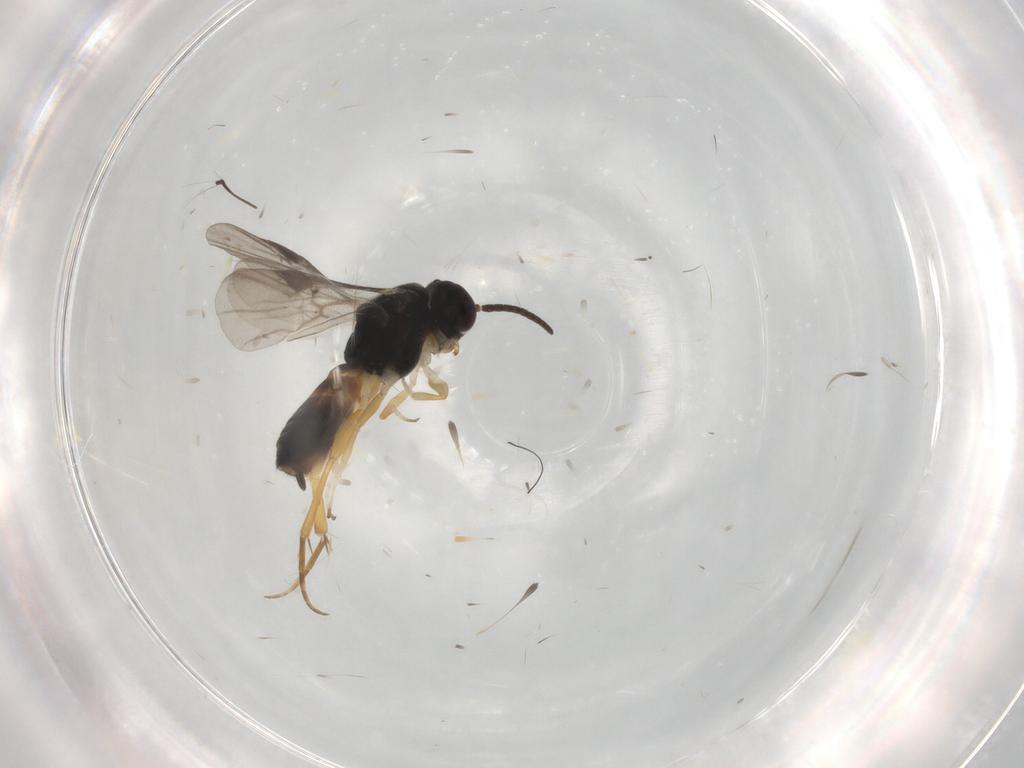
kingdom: Animalia
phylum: Arthropoda
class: Insecta
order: Hymenoptera
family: Braconidae
